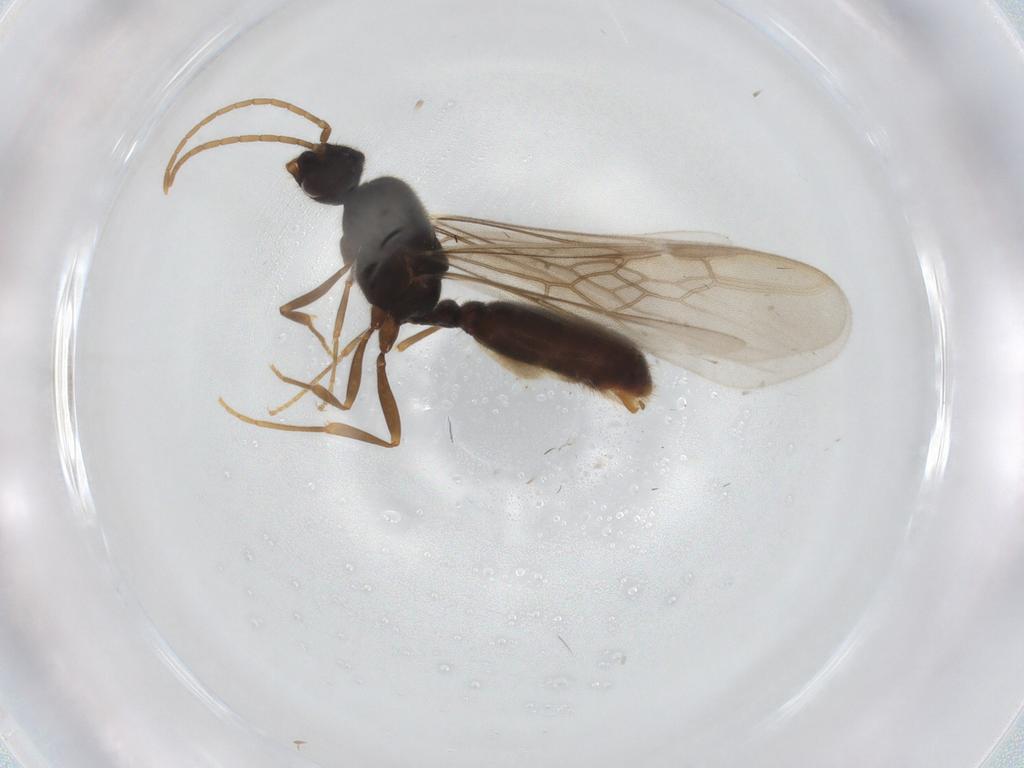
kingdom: Animalia
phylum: Arthropoda
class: Insecta
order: Hymenoptera
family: Formicidae
